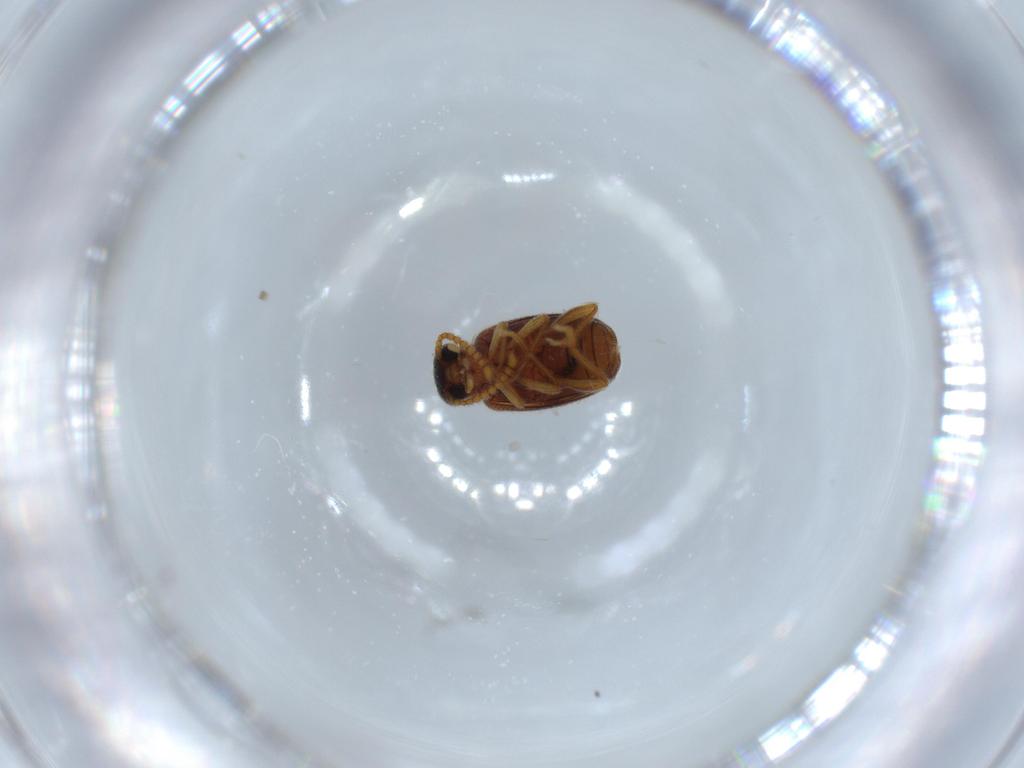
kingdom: Animalia
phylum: Arthropoda
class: Insecta
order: Coleoptera
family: Aderidae
